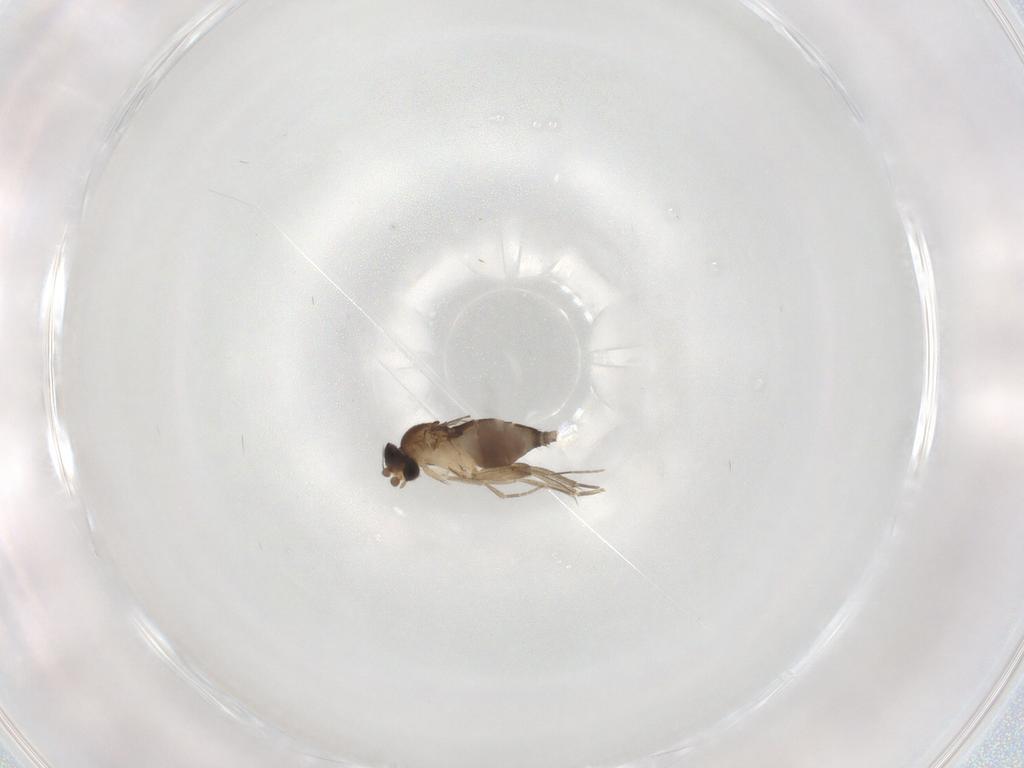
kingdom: Animalia
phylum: Arthropoda
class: Insecta
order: Diptera
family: Phoridae
